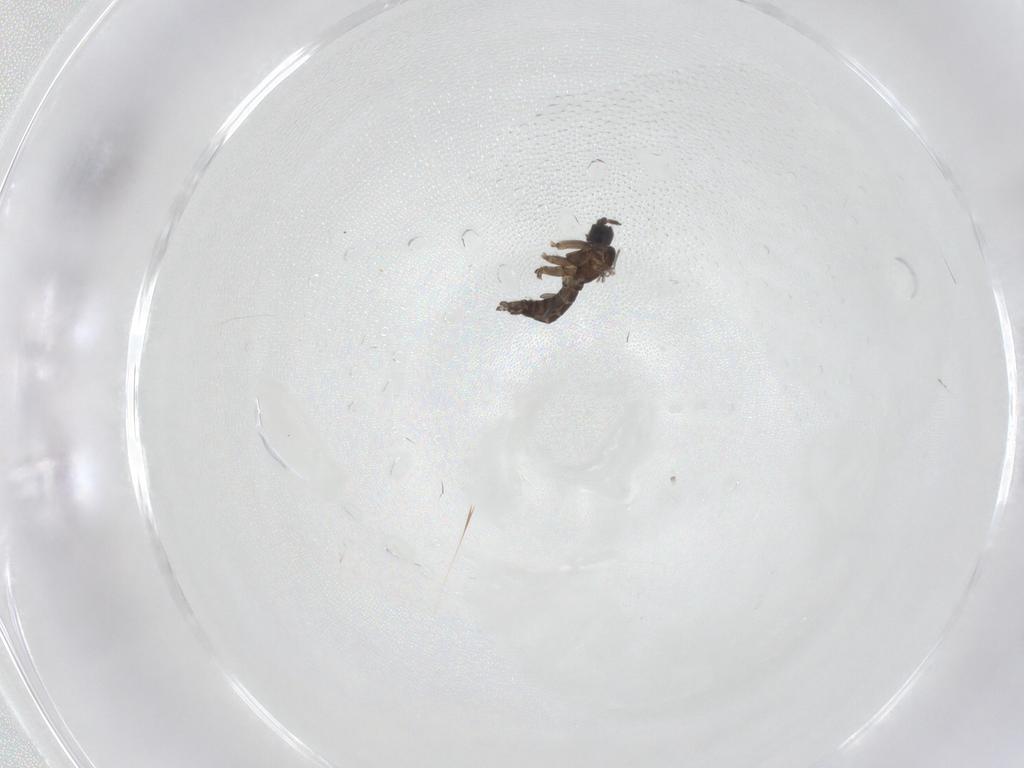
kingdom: Animalia
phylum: Arthropoda
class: Insecta
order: Diptera
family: Sciaridae
